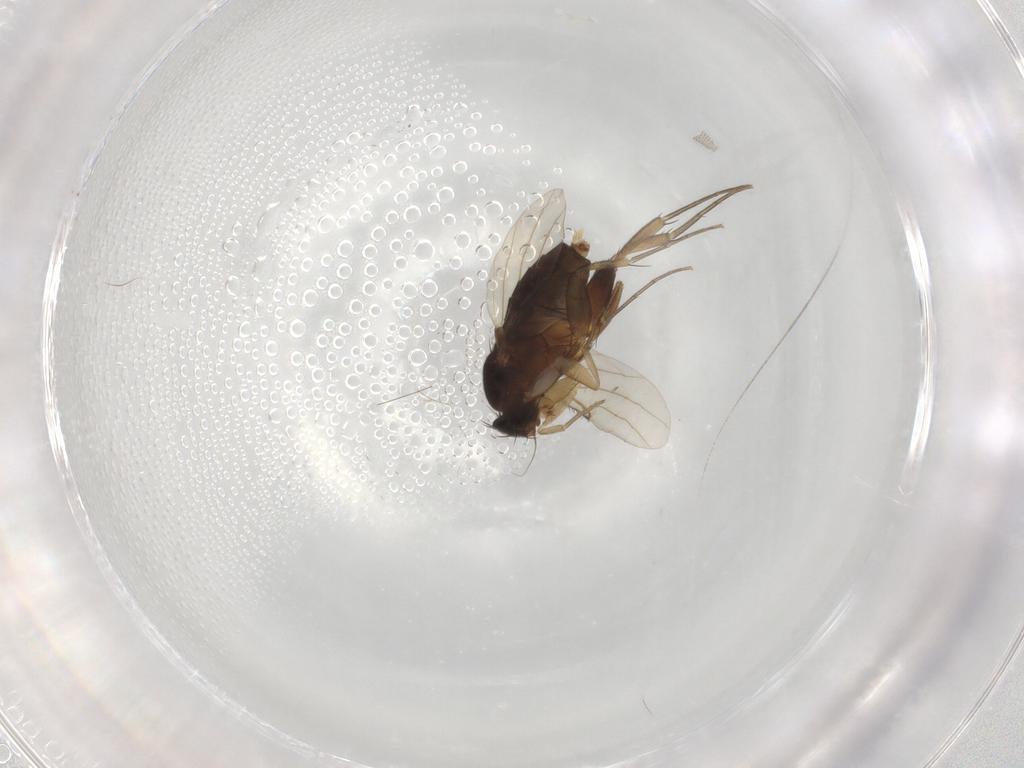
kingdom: Animalia
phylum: Arthropoda
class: Insecta
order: Diptera
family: Phoridae
